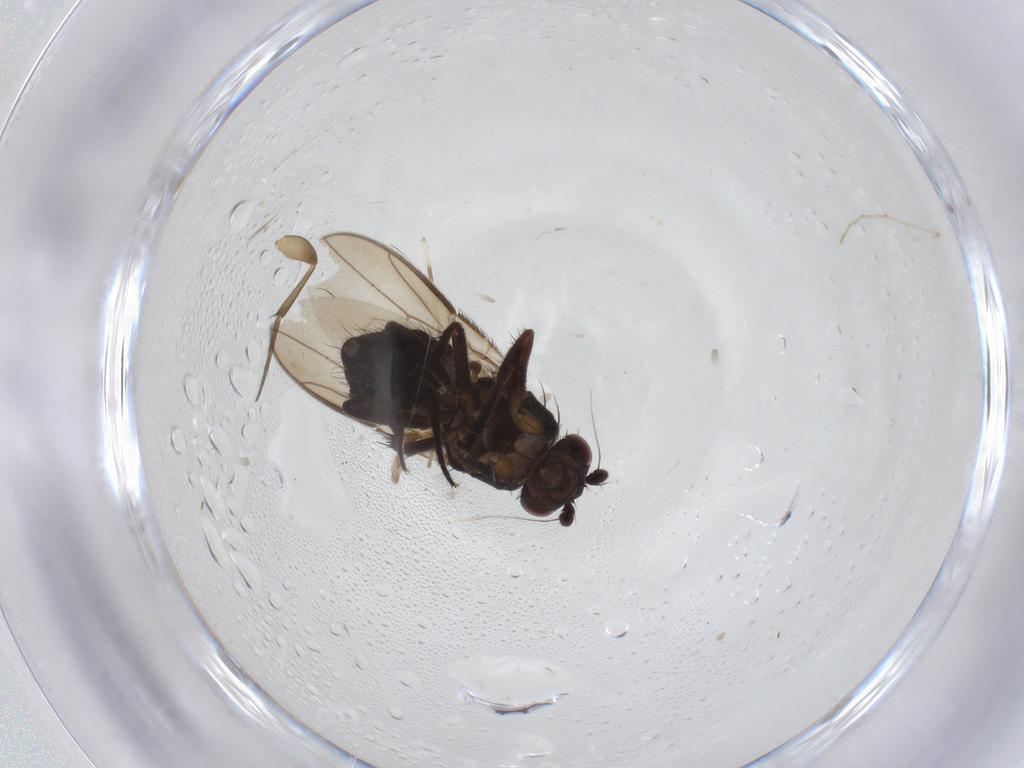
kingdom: Animalia
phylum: Arthropoda
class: Insecta
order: Diptera
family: Sphaeroceridae
